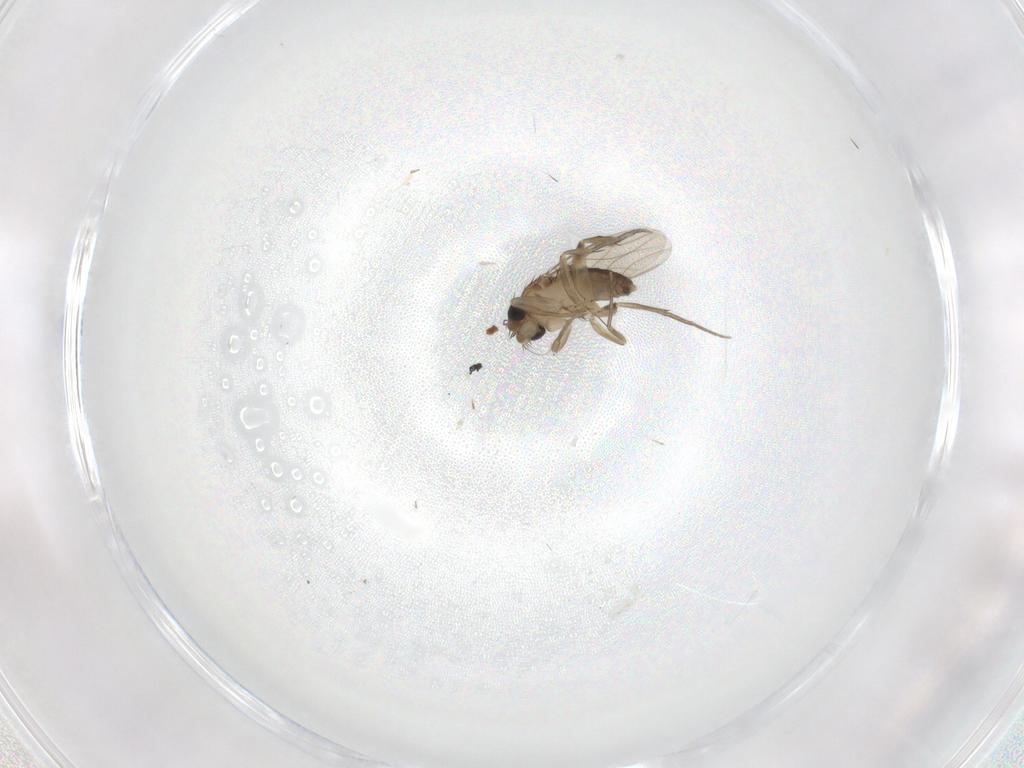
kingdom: Animalia
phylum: Arthropoda
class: Insecta
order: Diptera
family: Phoridae
